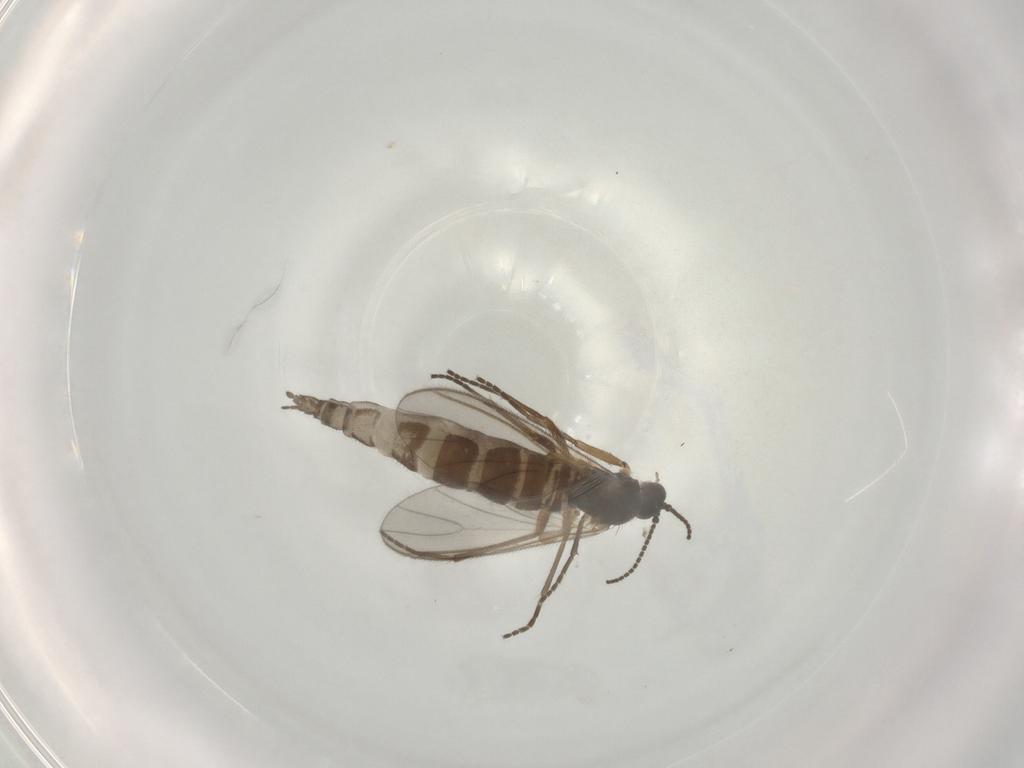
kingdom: Animalia
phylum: Arthropoda
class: Insecta
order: Diptera
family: Sciaridae
